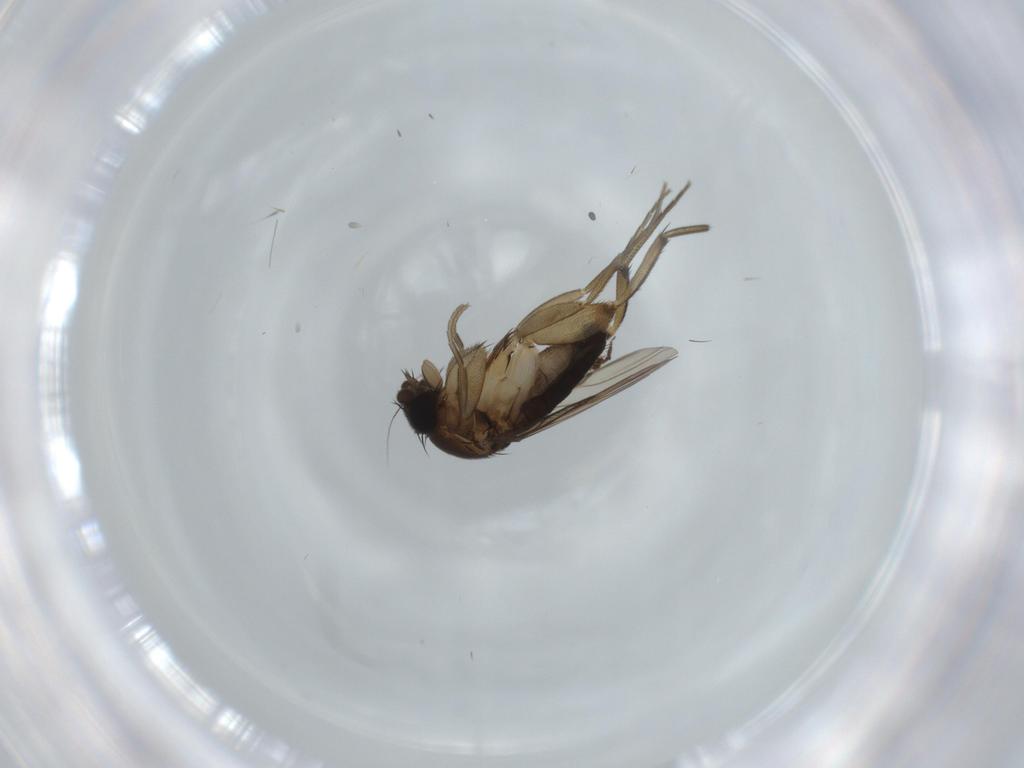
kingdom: Animalia
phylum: Arthropoda
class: Insecta
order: Diptera
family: Phoridae
